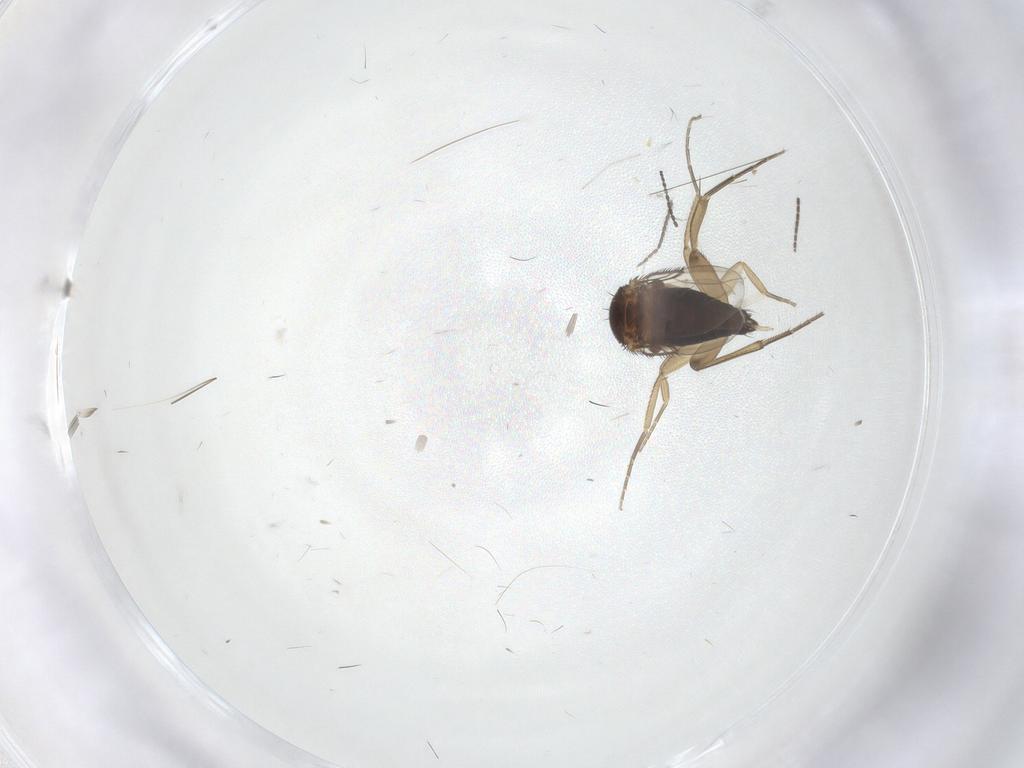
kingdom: Animalia
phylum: Arthropoda
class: Insecta
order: Diptera
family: Sciaridae
